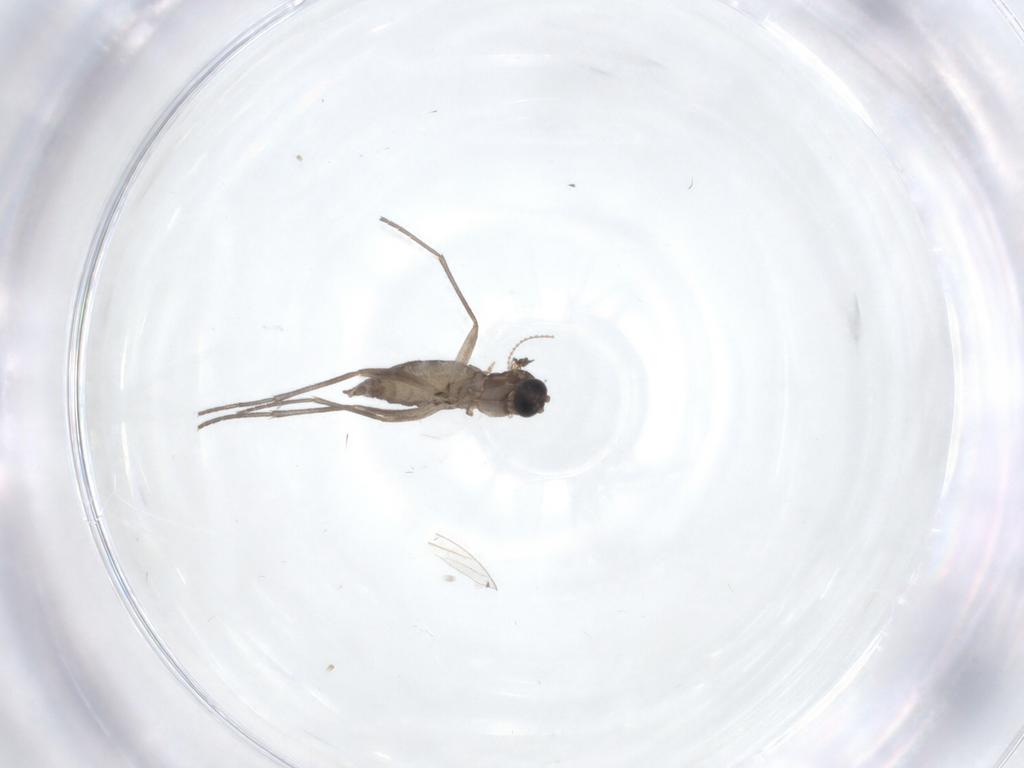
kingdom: Animalia
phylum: Arthropoda
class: Insecta
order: Diptera
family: Sciaridae
